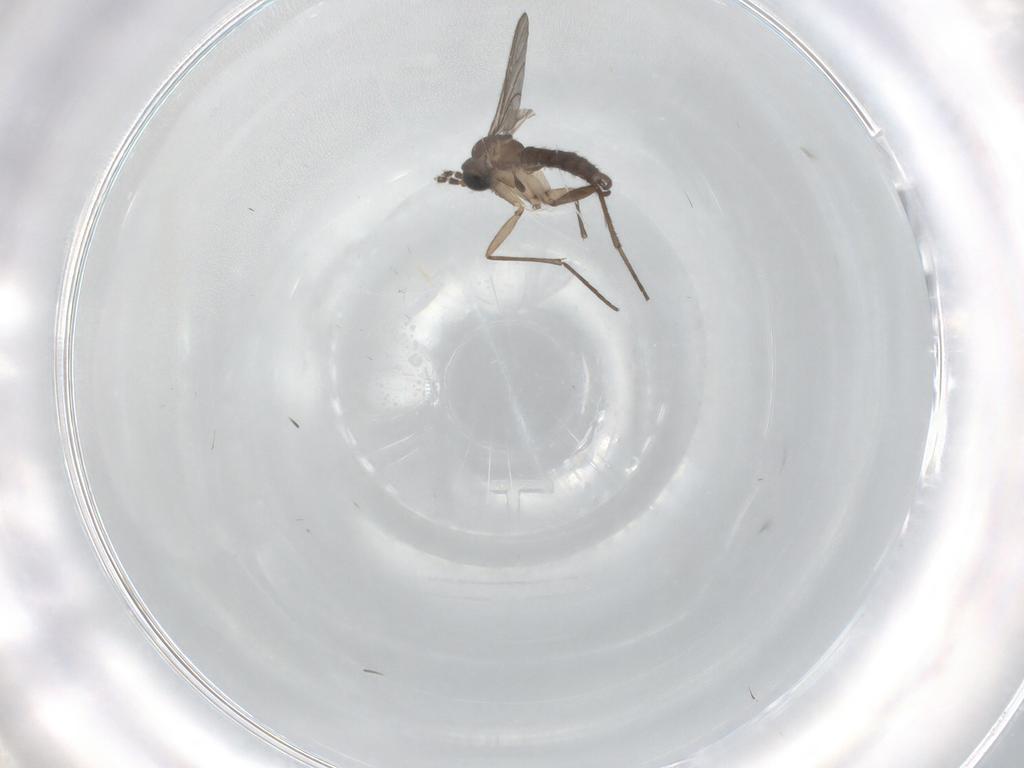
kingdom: Animalia
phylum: Arthropoda
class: Insecta
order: Diptera
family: Sciaridae
